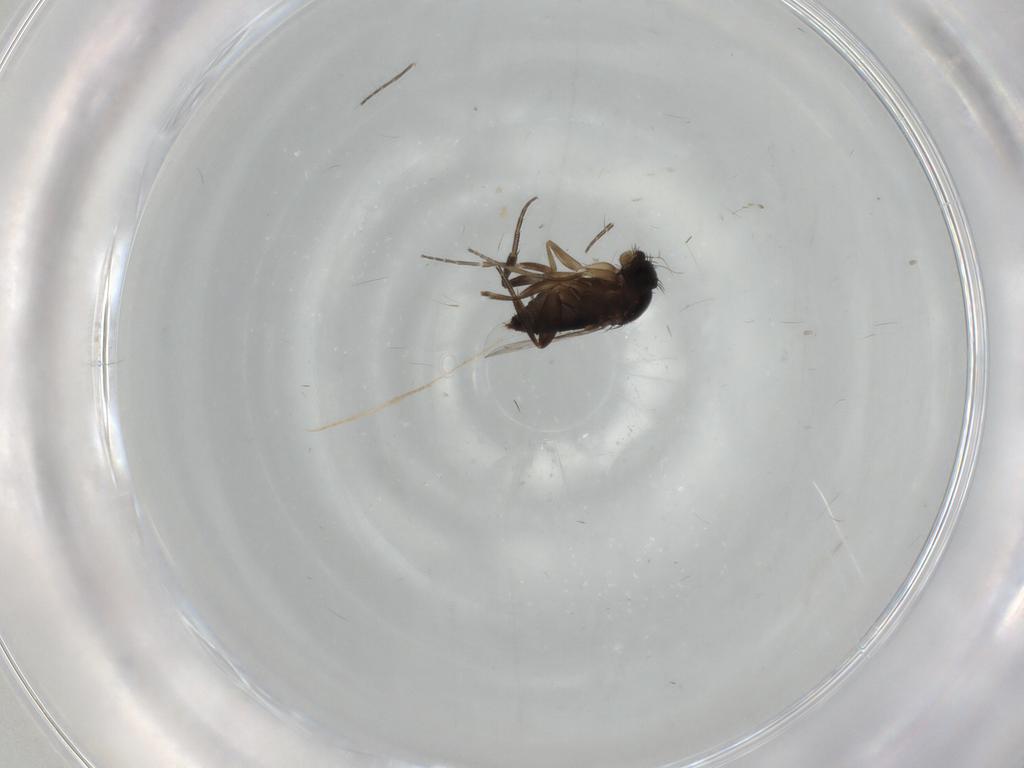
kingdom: Animalia
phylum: Arthropoda
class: Insecta
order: Diptera
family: Phoridae
